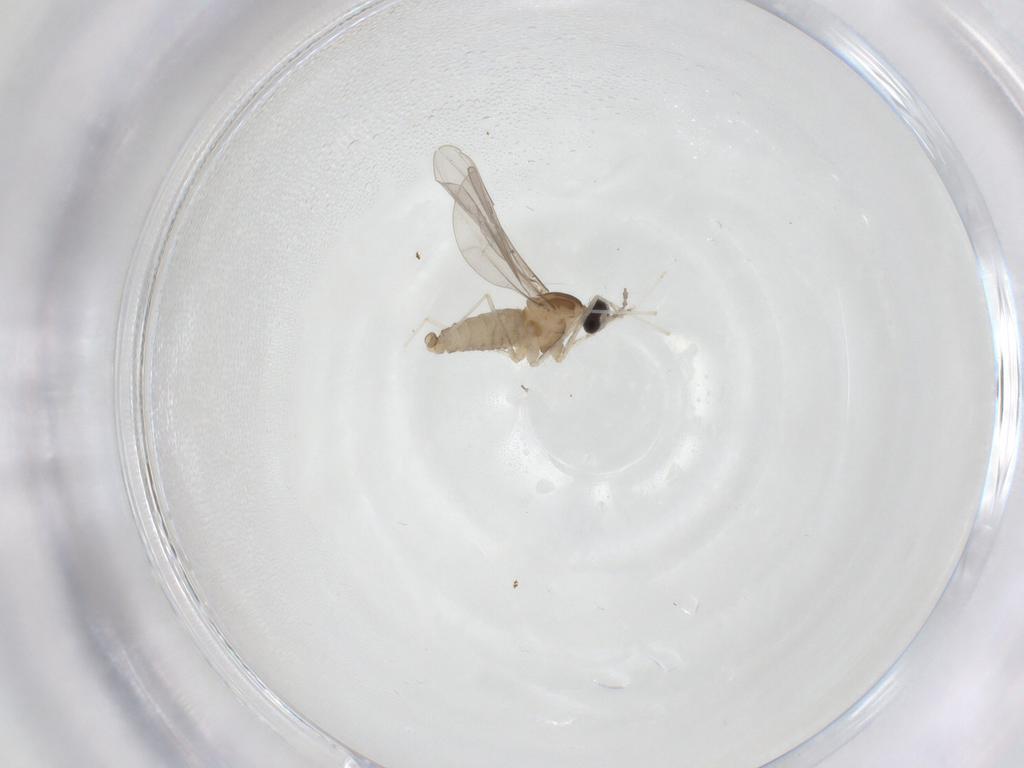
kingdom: Animalia
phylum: Arthropoda
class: Insecta
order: Diptera
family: Cecidomyiidae
